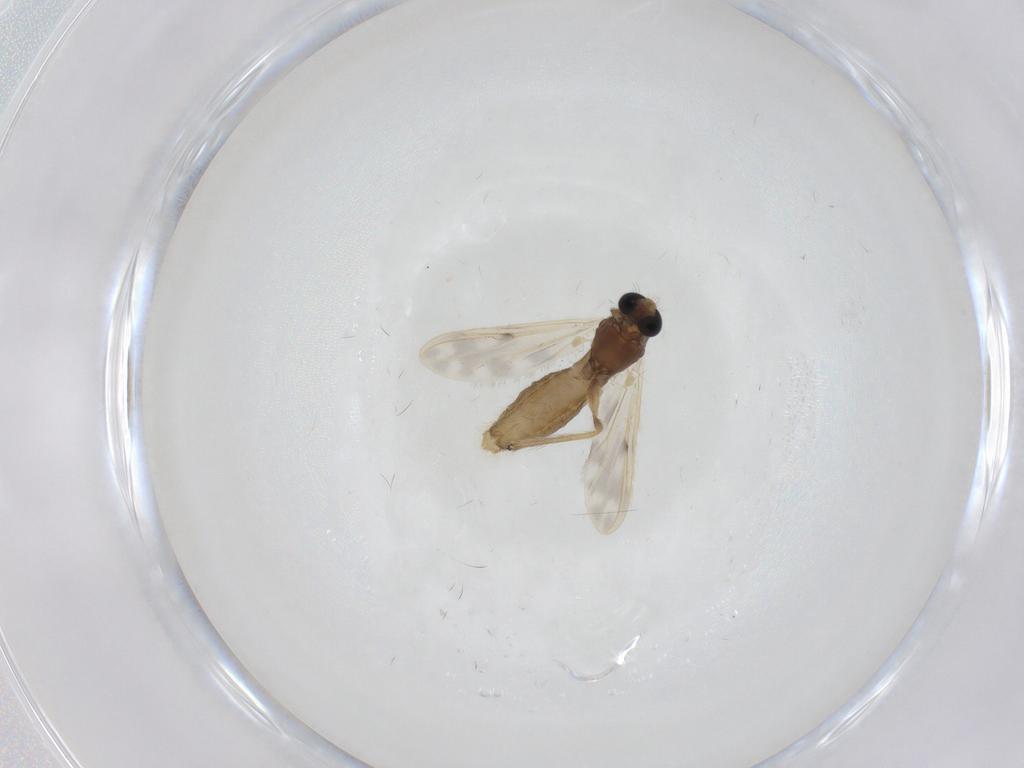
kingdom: Animalia
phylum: Arthropoda
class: Insecta
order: Diptera
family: Chironomidae
